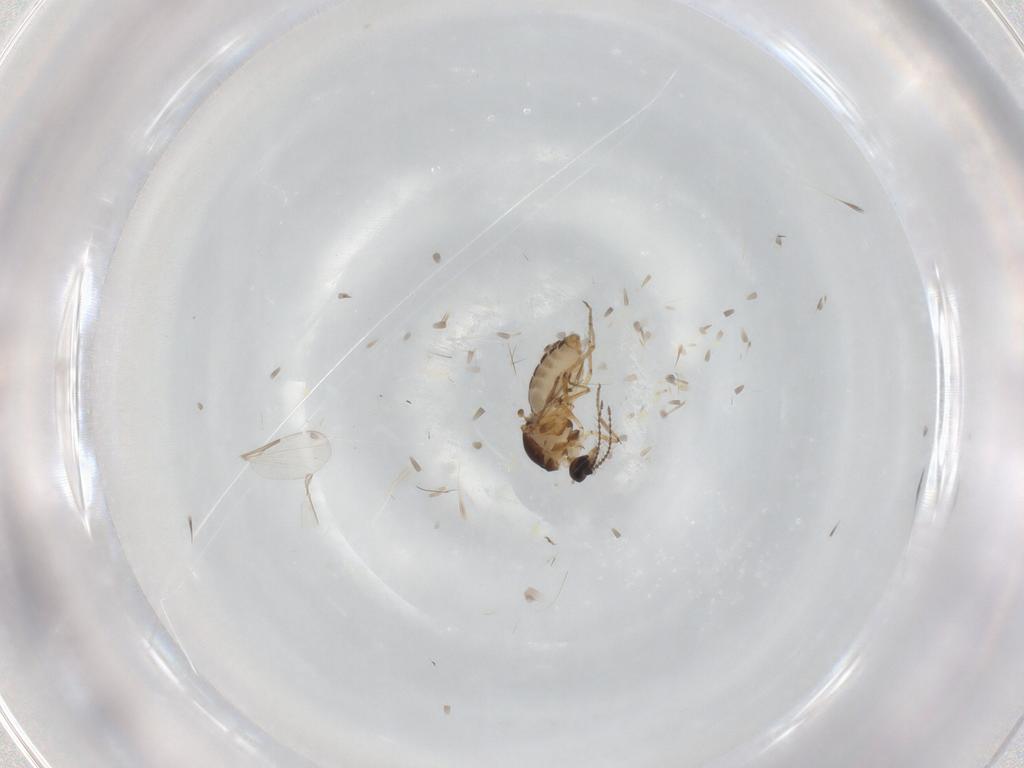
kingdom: Animalia
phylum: Arthropoda
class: Insecta
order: Diptera
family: Ceratopogonidae
